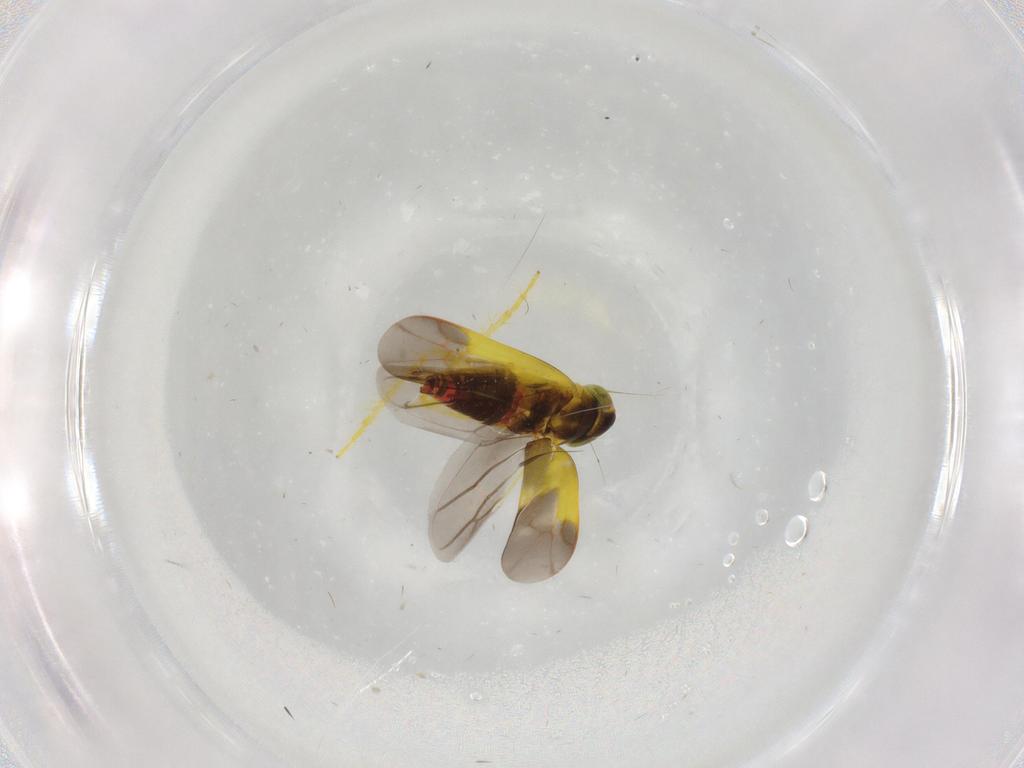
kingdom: Animalia
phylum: Arthropoda
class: Insecta
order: Hemiptera
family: Cicadellidae
